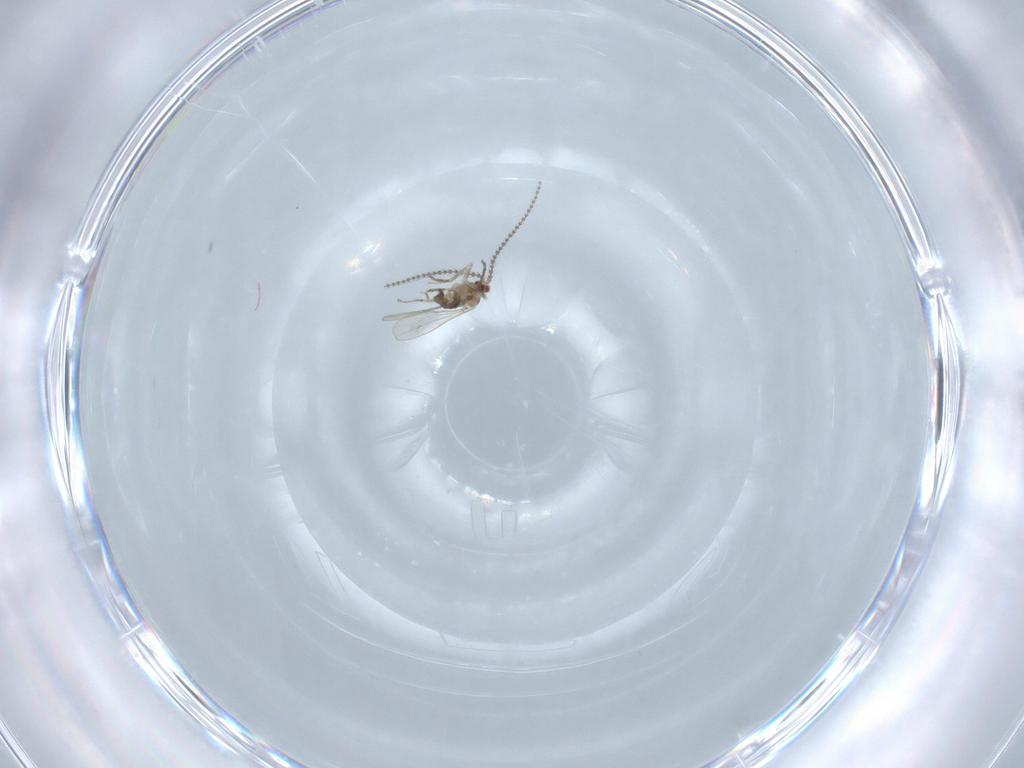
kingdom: Animalia
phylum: Arthropoda
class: Insecta
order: Diptera
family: Cecidomyiidae
